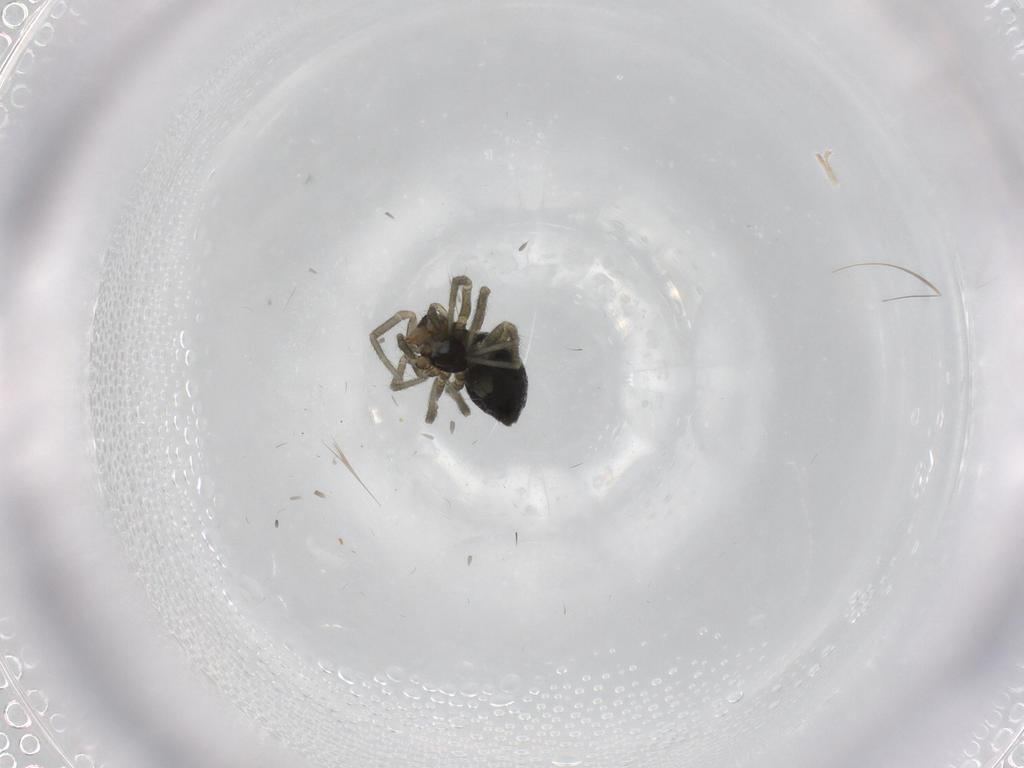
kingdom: Animalia
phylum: Arthropoda
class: Arachnida
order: Araneae
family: Linyphiidae
